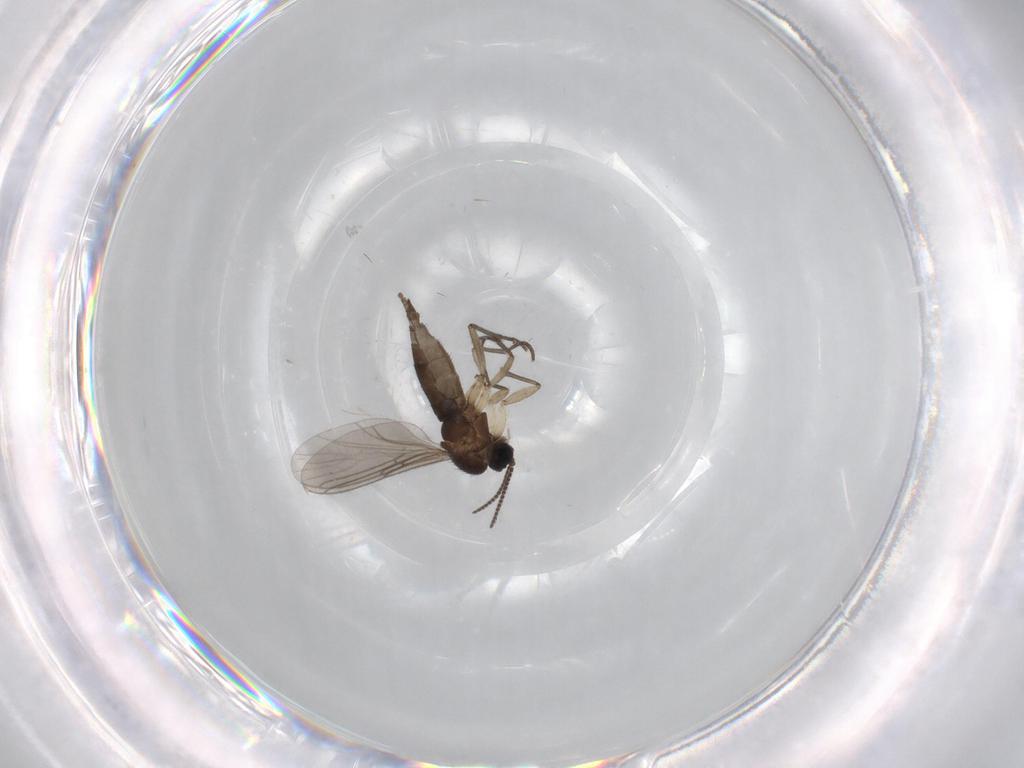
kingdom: Animalia
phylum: Arthropoda
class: Insecta
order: Diptera
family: Sciaridae
